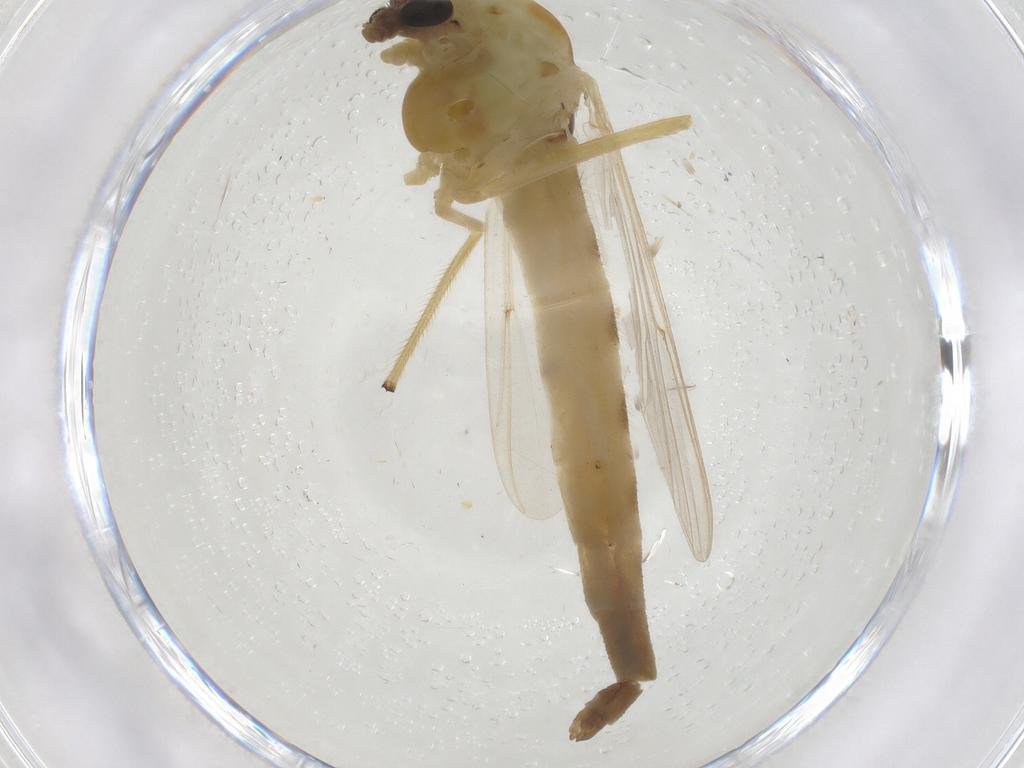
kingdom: Animalia
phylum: Arthropoda
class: Insecta
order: Diptera
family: Chironomidae
